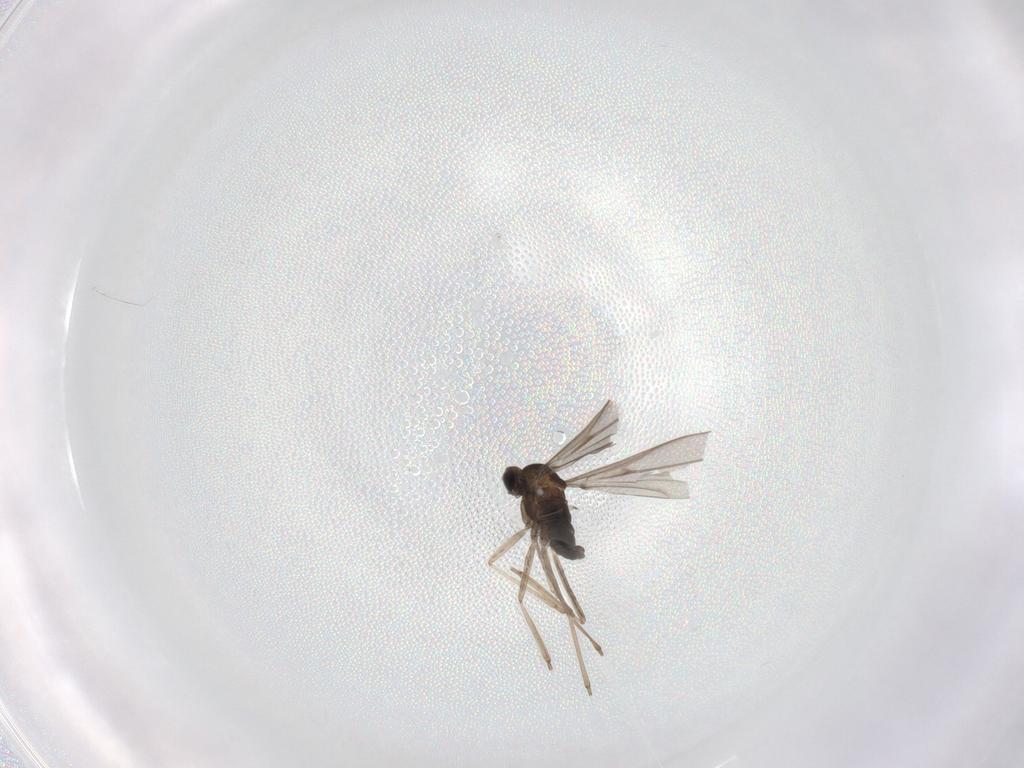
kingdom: Animalia
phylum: Arthropoda
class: Insecta
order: Diptera
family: Cecidomyiidae
